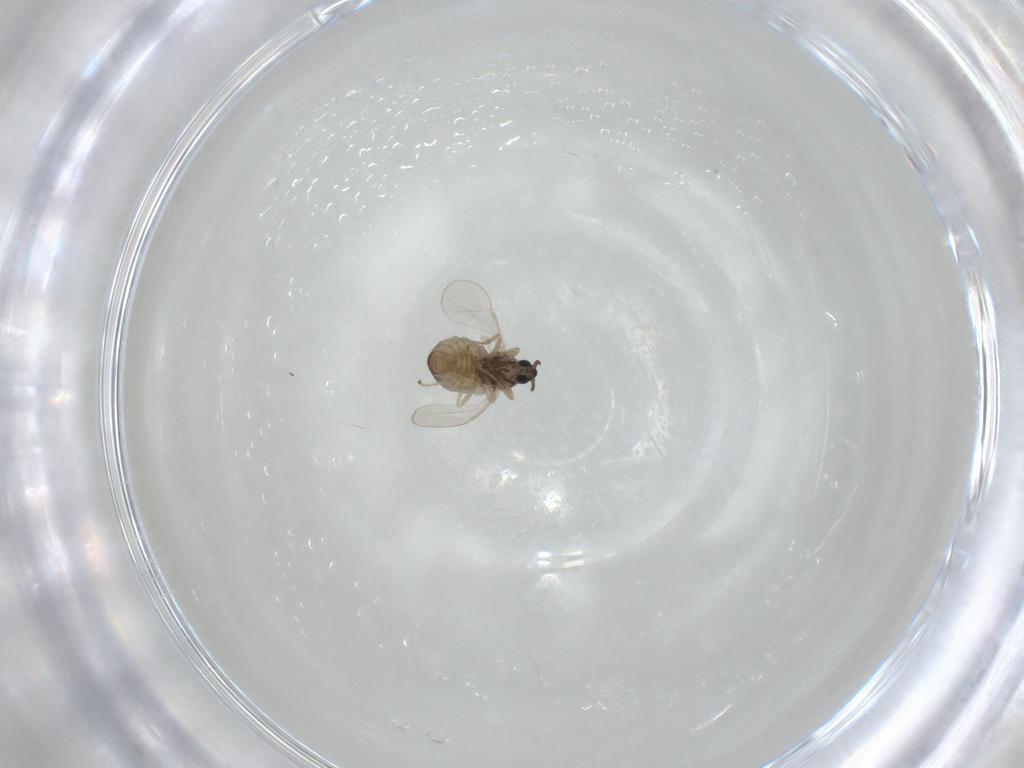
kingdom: Animalia
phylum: Arthropoda
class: Insecta
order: Diptera
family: Cecidomyiidae
